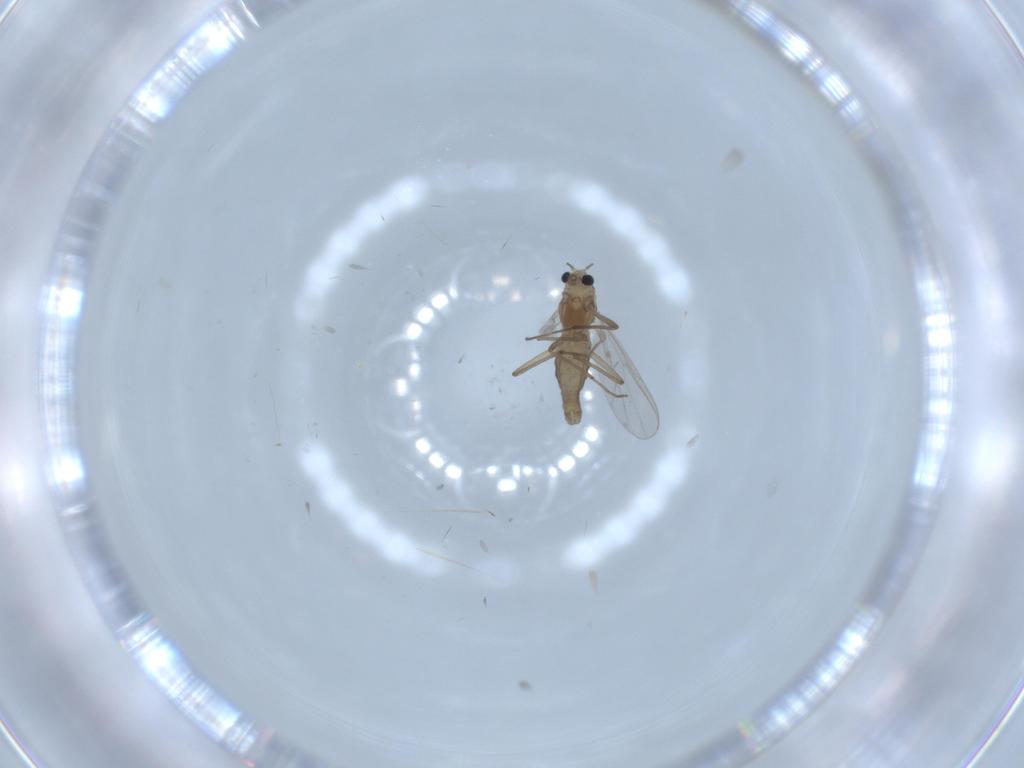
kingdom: Animalia
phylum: Arthropoda
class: Insecta
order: Diptera
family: Chironomidae
